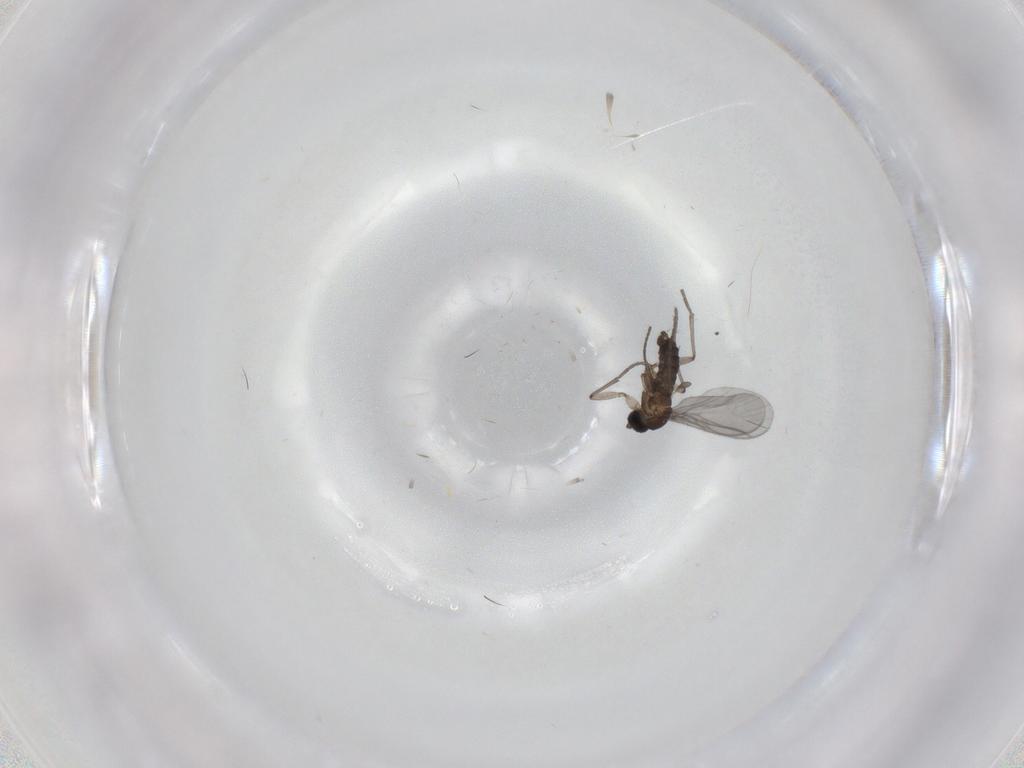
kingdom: Animalia
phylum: Arthropoda
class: Insecta
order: Diptera
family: Sciaridae
